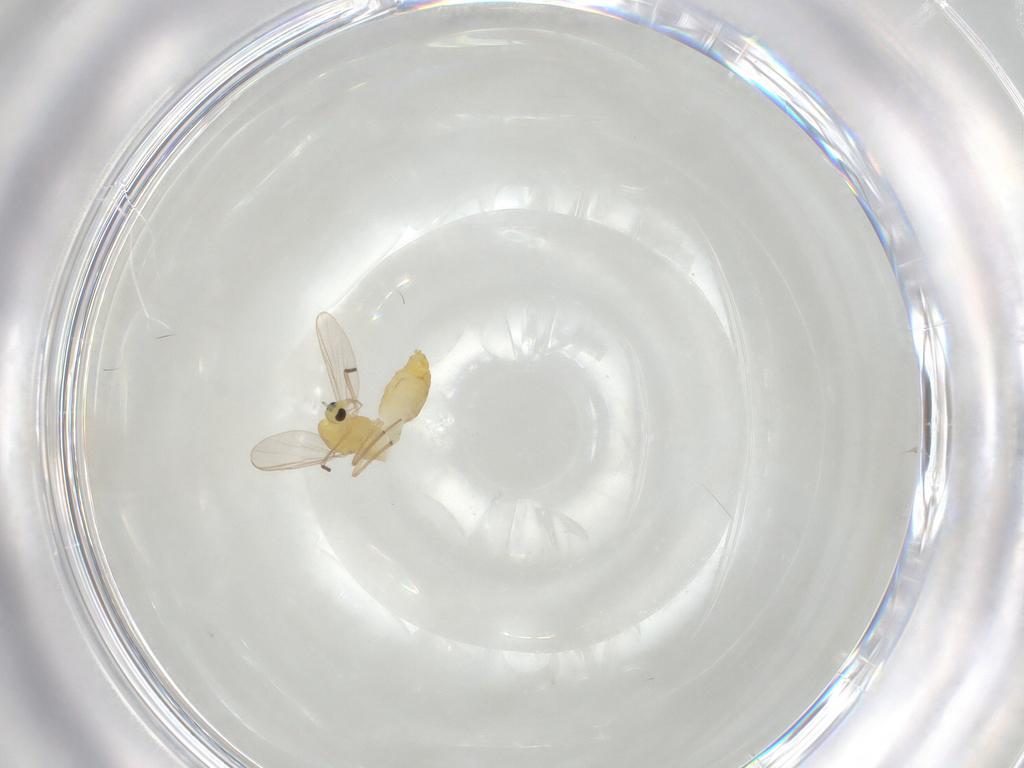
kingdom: Animalia
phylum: Arthropoda
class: Insecta
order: Diptera
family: Chironomidae
